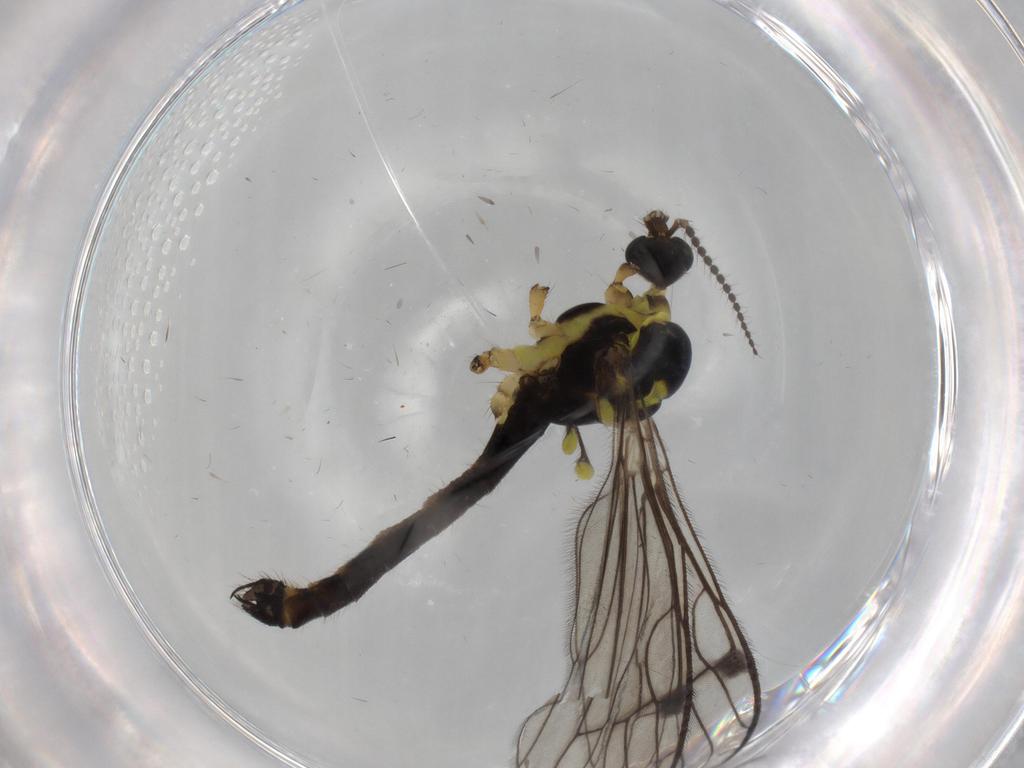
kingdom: Animalia
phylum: Arthropoda
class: Insecta
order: Diptera
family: Limoniidae
